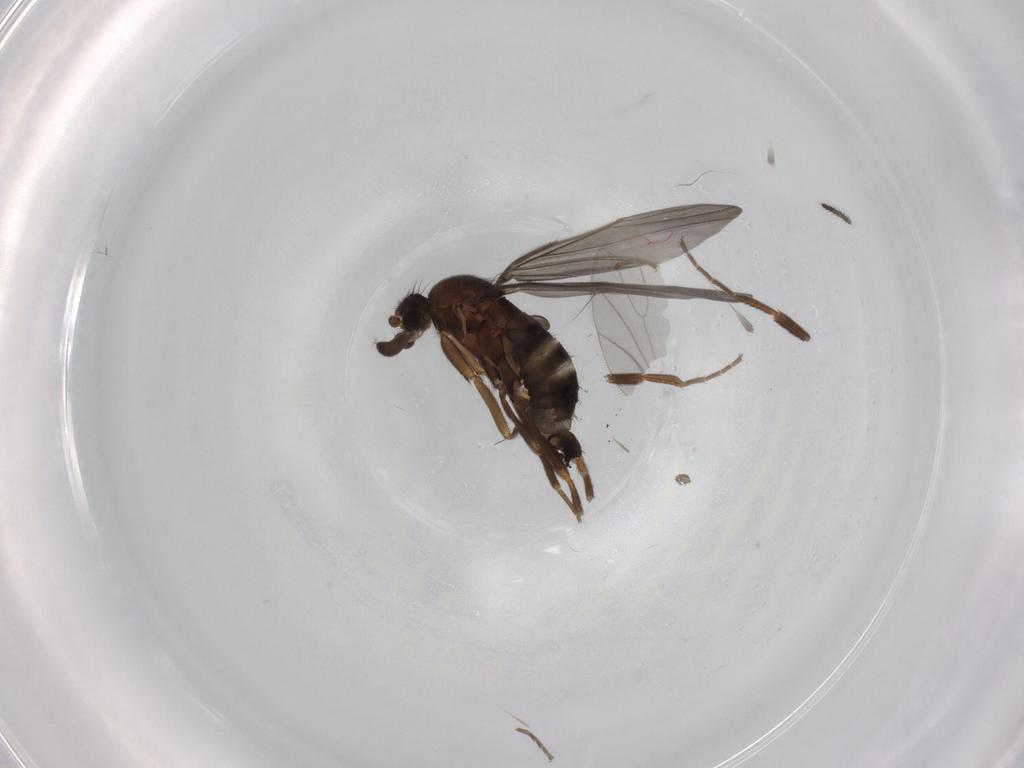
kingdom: Animalia
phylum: Arthropoda
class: Insecta
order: Diptera
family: Phoridae
